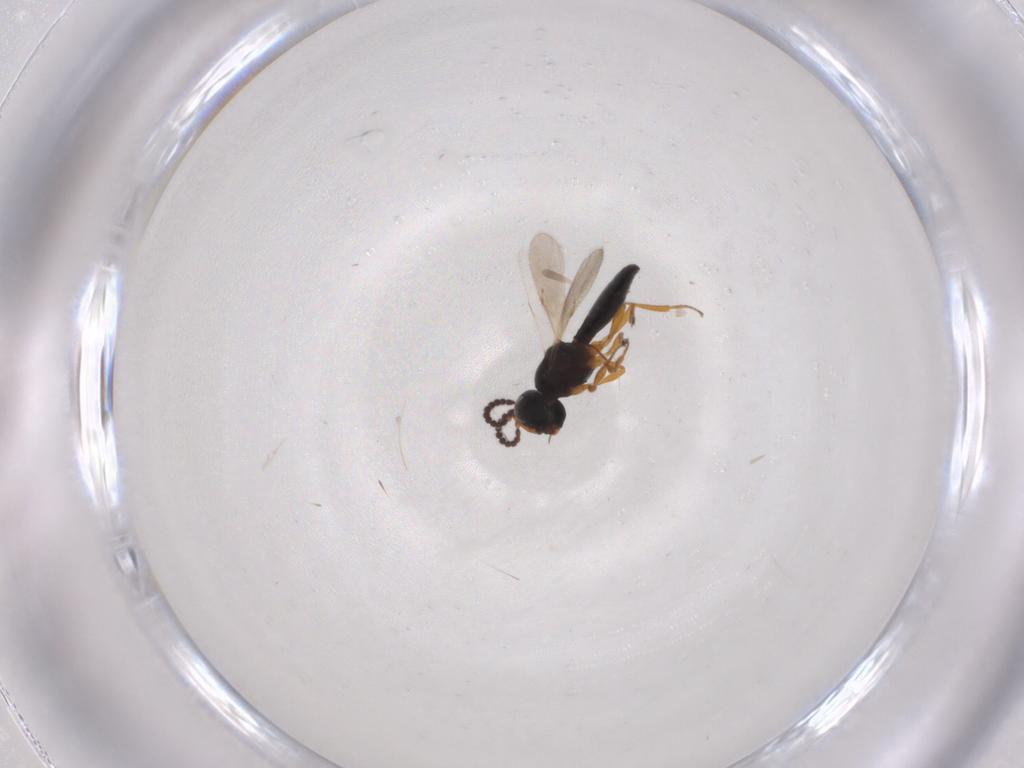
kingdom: Animalia
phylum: Arthropoda
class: Insecta
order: Hymenoptera
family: Scelionidae
